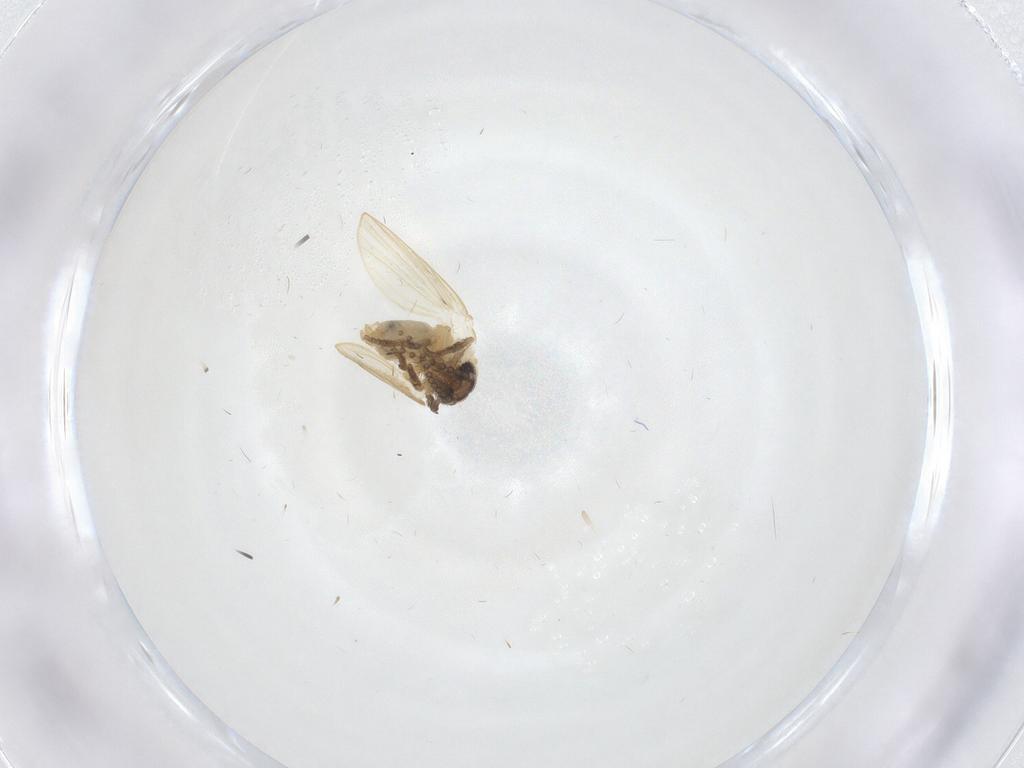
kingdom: Animalia
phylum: Arthropoda
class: Insecta
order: Diptera
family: Psychodidae
